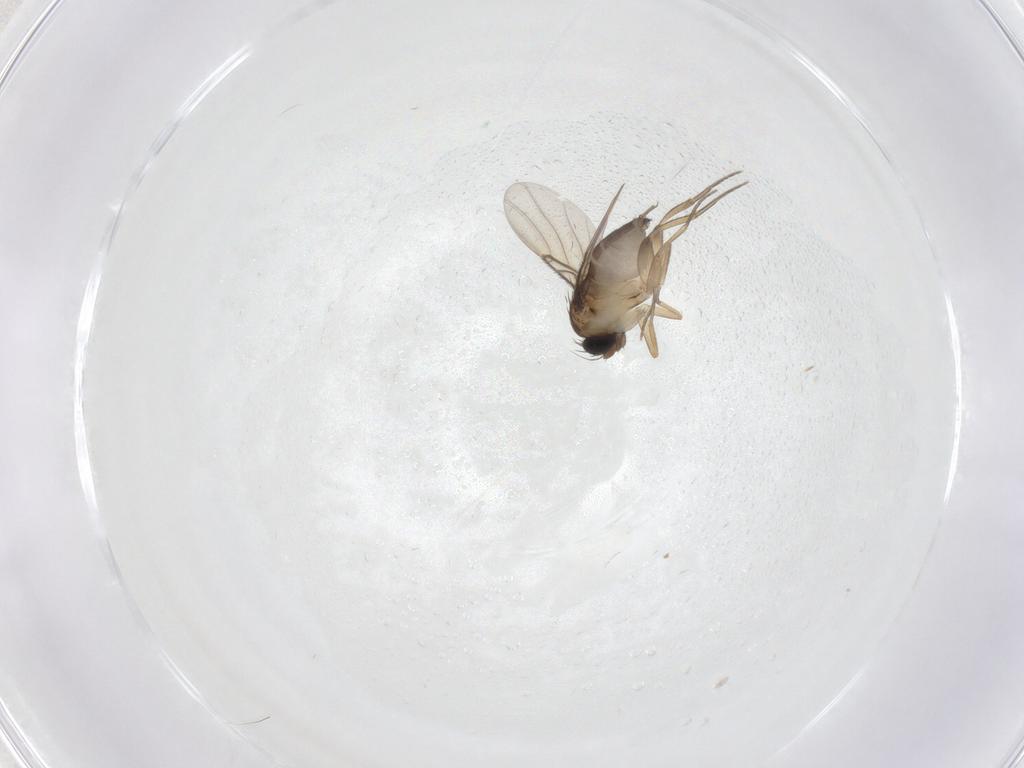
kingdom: Animalia
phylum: Arthropoda
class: Insecta
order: Diptera
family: Cecidomyiidae
